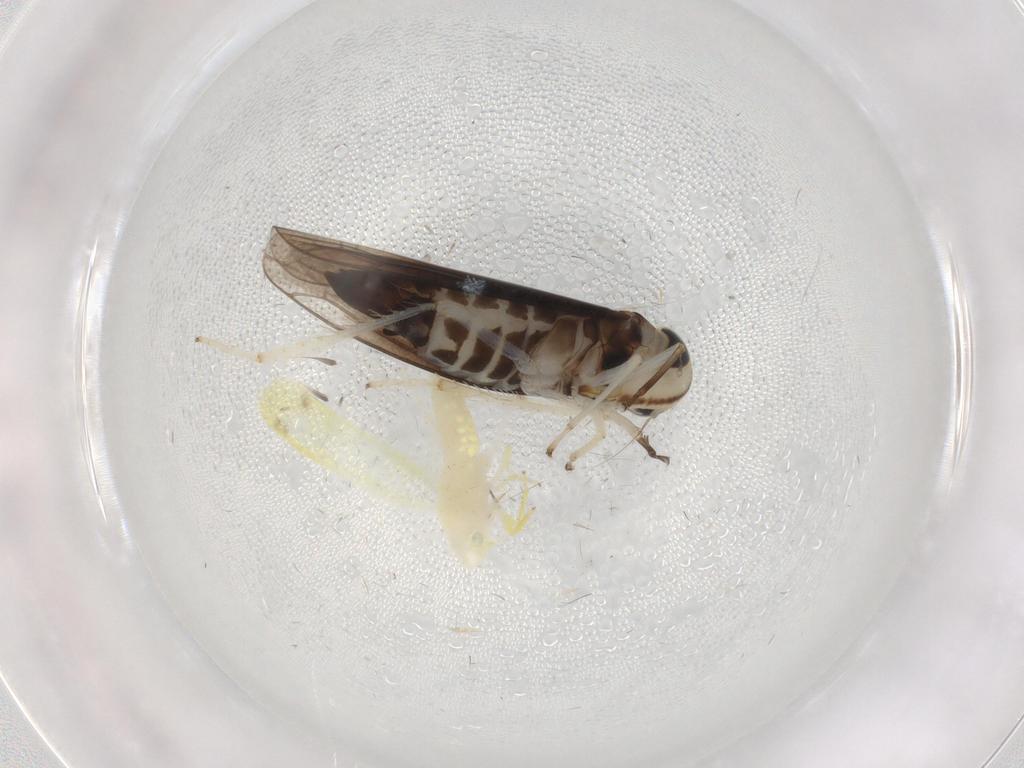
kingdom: Animalia
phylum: Arthropoda
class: Insecta
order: Hemiptera
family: Cicadellidae
